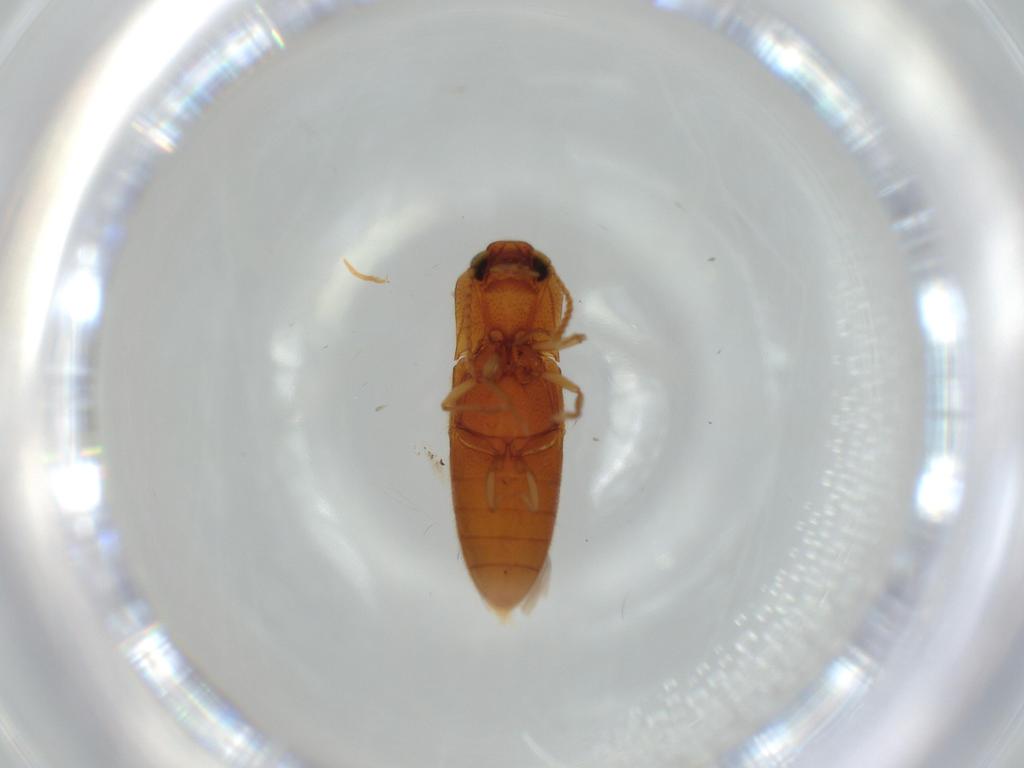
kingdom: Animalia
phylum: Arthropoda
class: Insecta
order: Coleoptera
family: Elateridae
